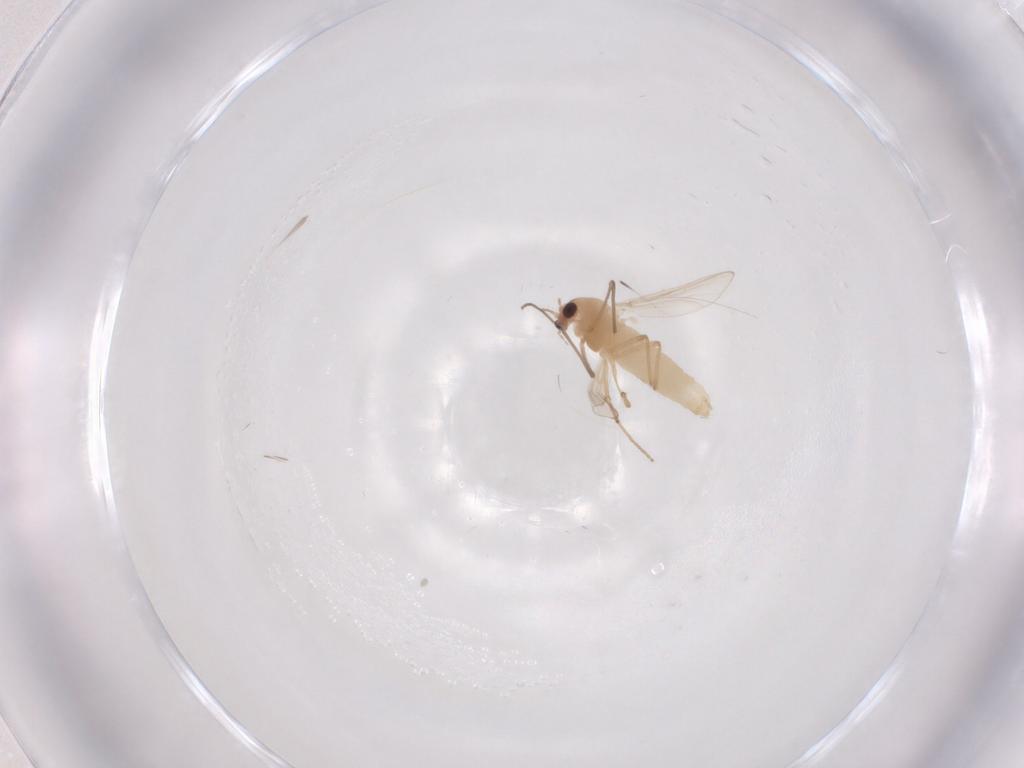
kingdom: Animalia
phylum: Arthropoda
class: Insecta
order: Diptera
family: Chironomidae
